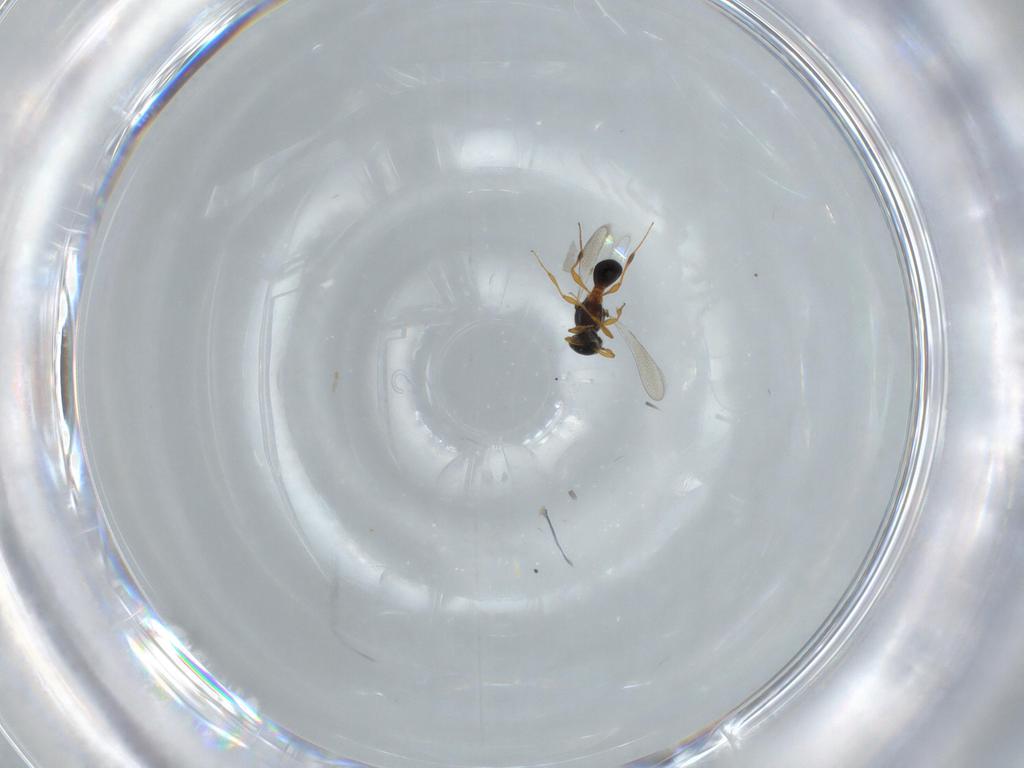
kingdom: Animalia
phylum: Arthropoda
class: Insecta
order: Hymenoptera
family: Platygastridae
